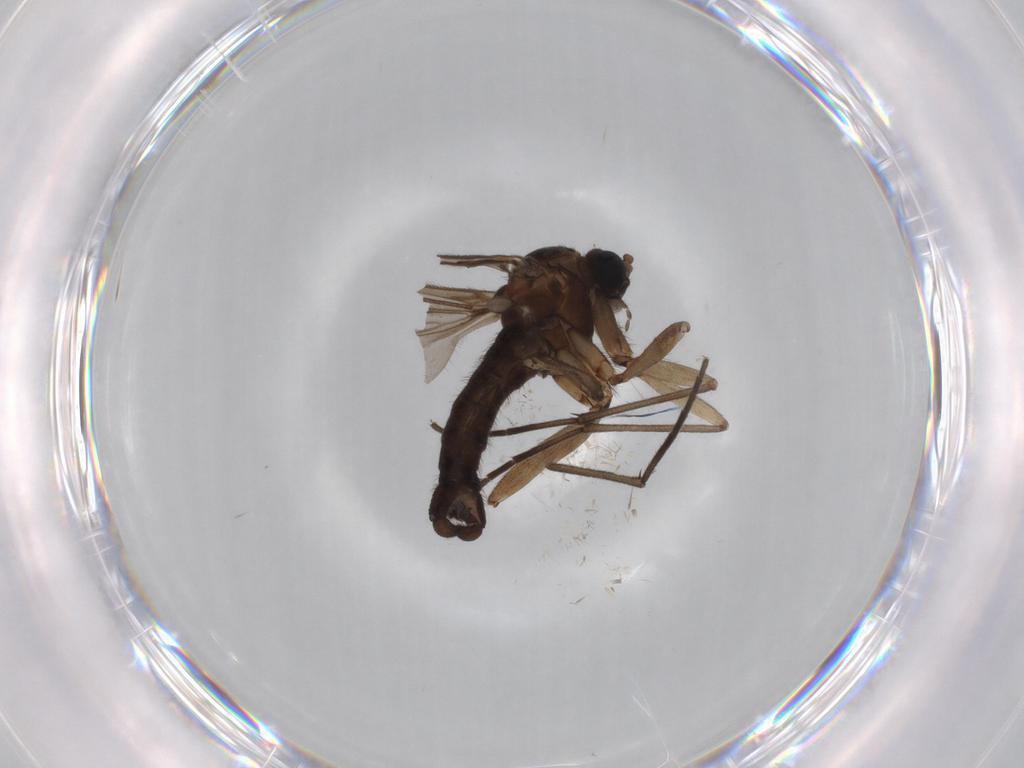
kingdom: Animalia
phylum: Arthropoda
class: Insecta
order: Diptera
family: Sciaridae
